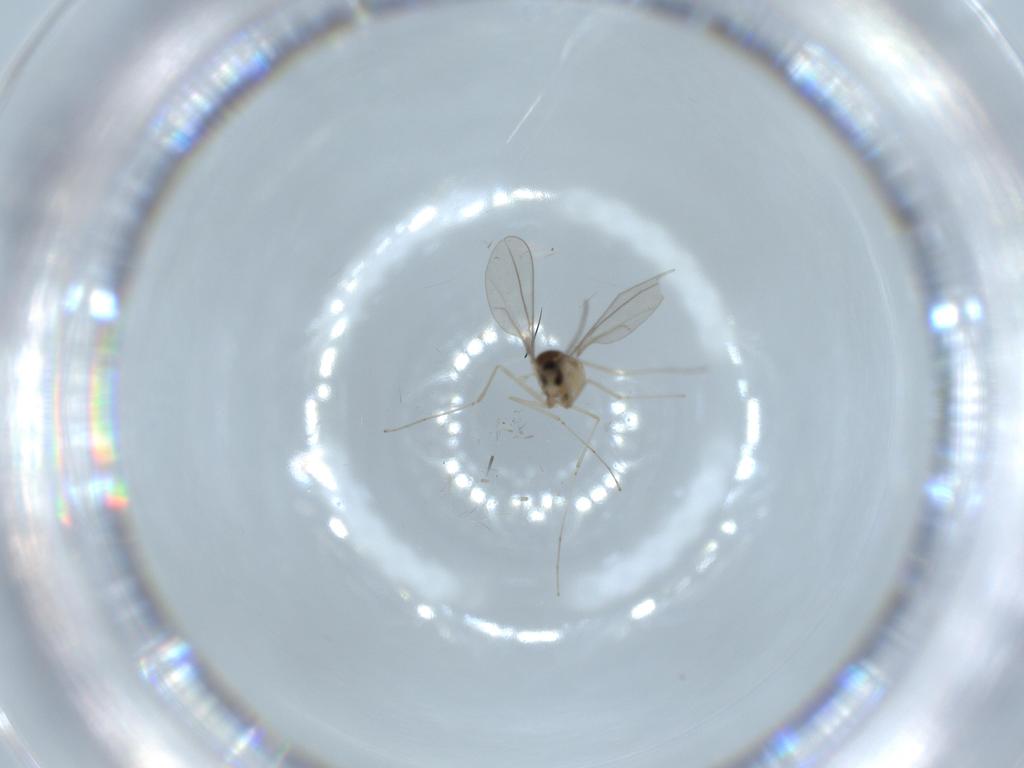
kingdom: Animalia
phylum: Arthropoda
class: Insecta
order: Diptera
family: Cecidomyiidae
